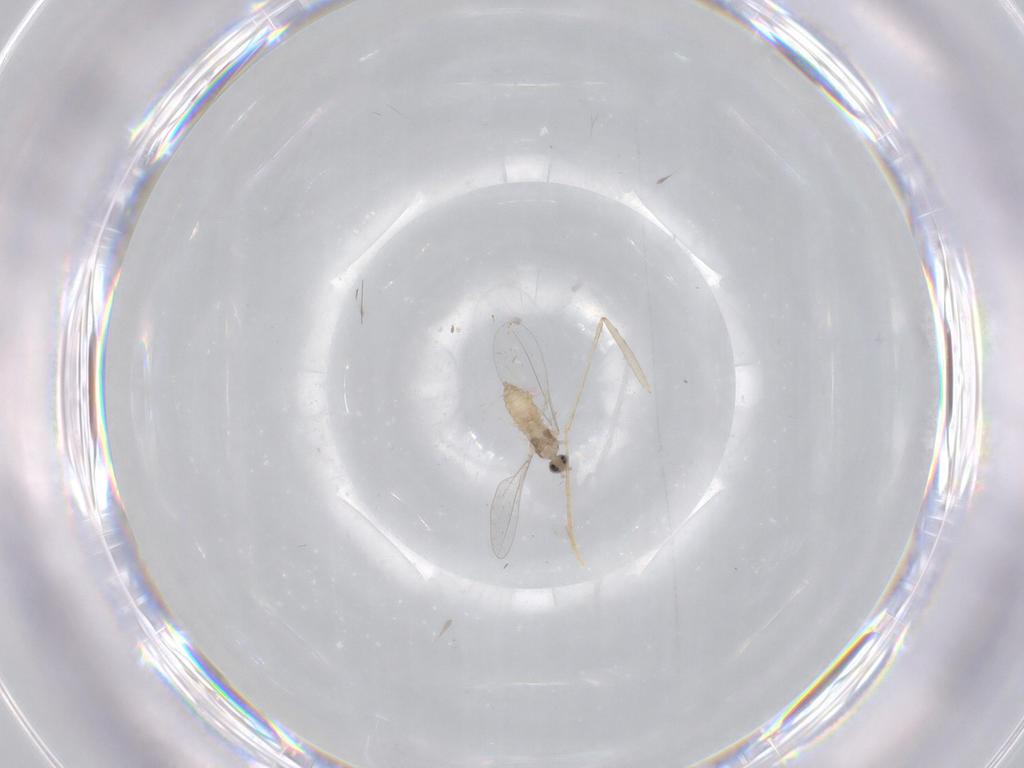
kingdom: Animalia
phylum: Arthropoda
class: Insecta
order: Diptera
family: Cecidomyiidae
